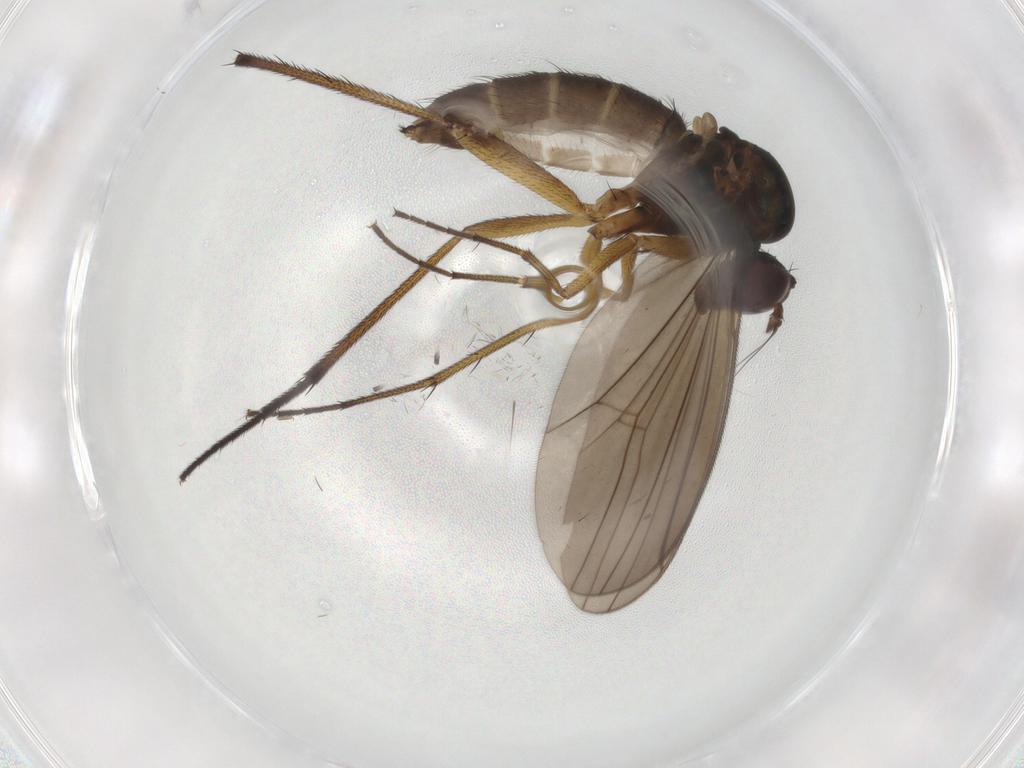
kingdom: Animalia
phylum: Arthropoda
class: Insecta
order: Diptera
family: Dolichopodidae
